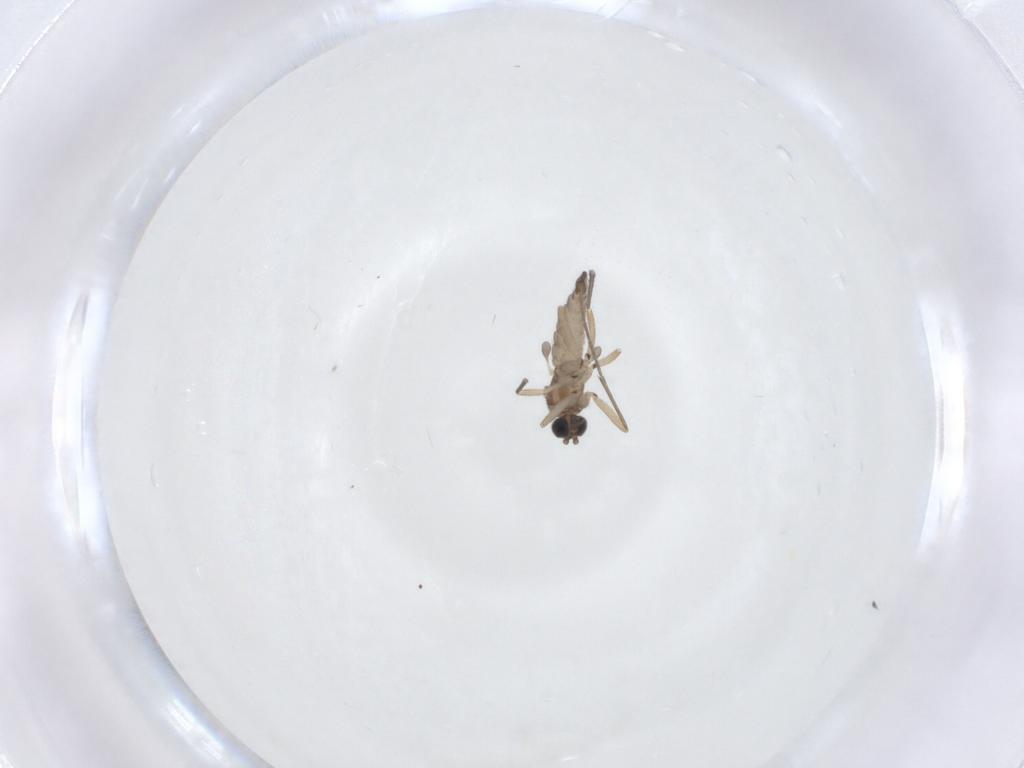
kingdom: Animalia
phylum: Arthropoda
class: Insecta
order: Diptera
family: Sciaridae
